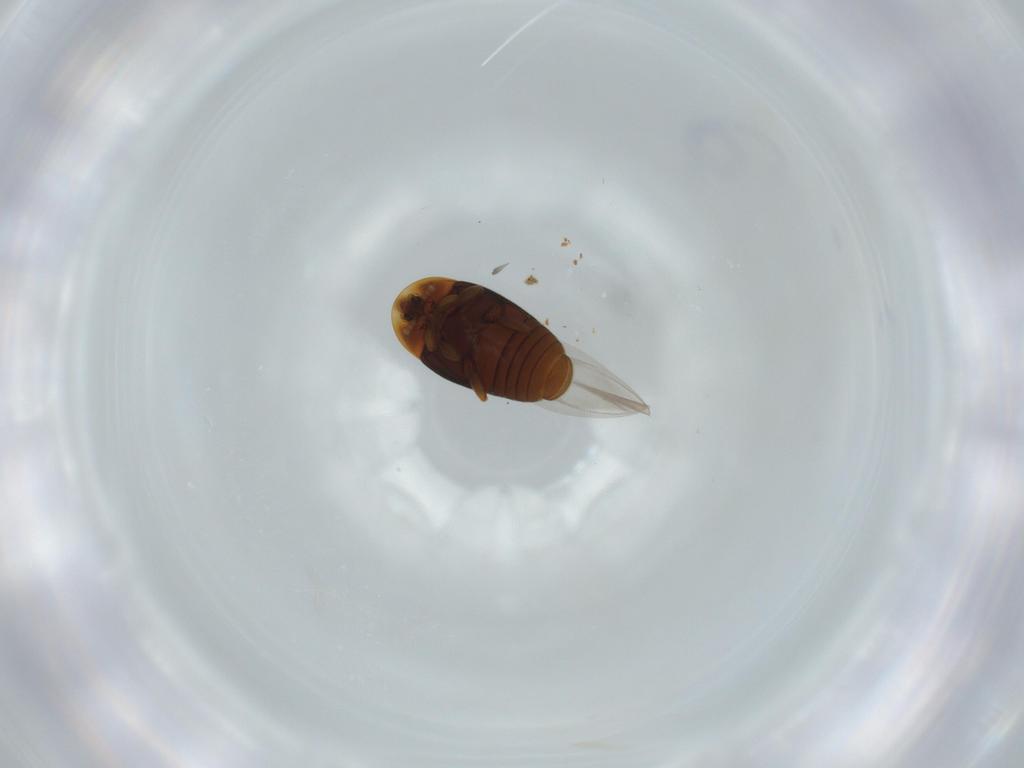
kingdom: Animalia
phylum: Arthropoda
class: Insecta
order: Coleoptera
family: Corylophidae
